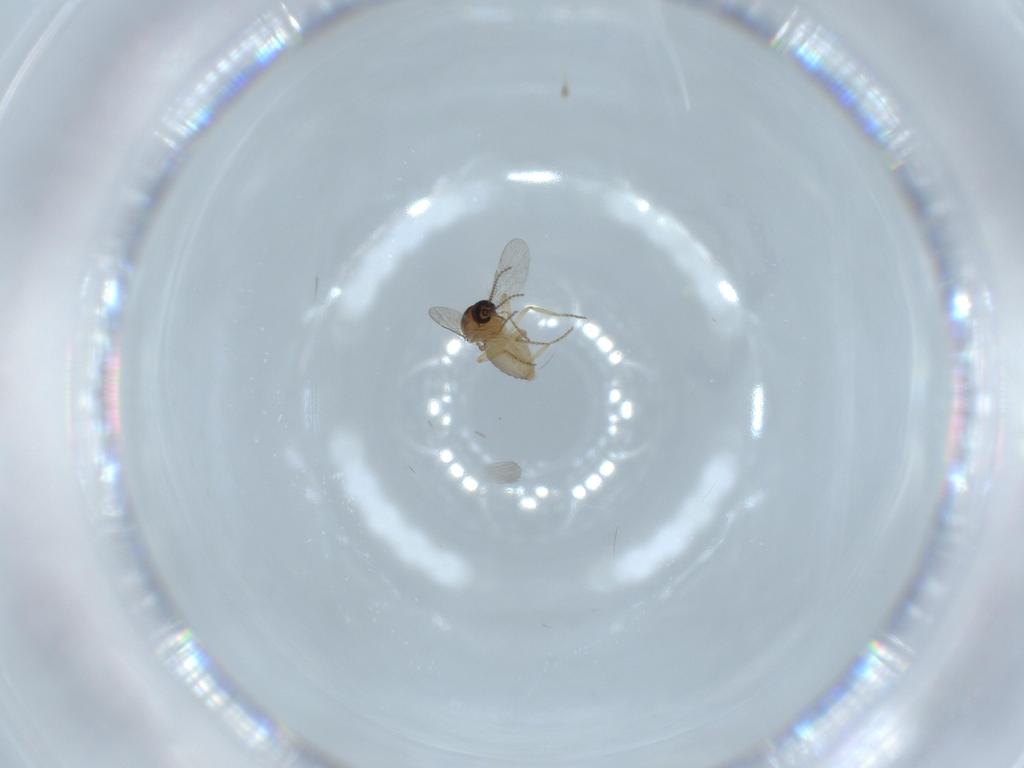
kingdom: Animalia
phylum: Arthropoda
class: Insecta
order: Diptera
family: Ceratopogonidae
